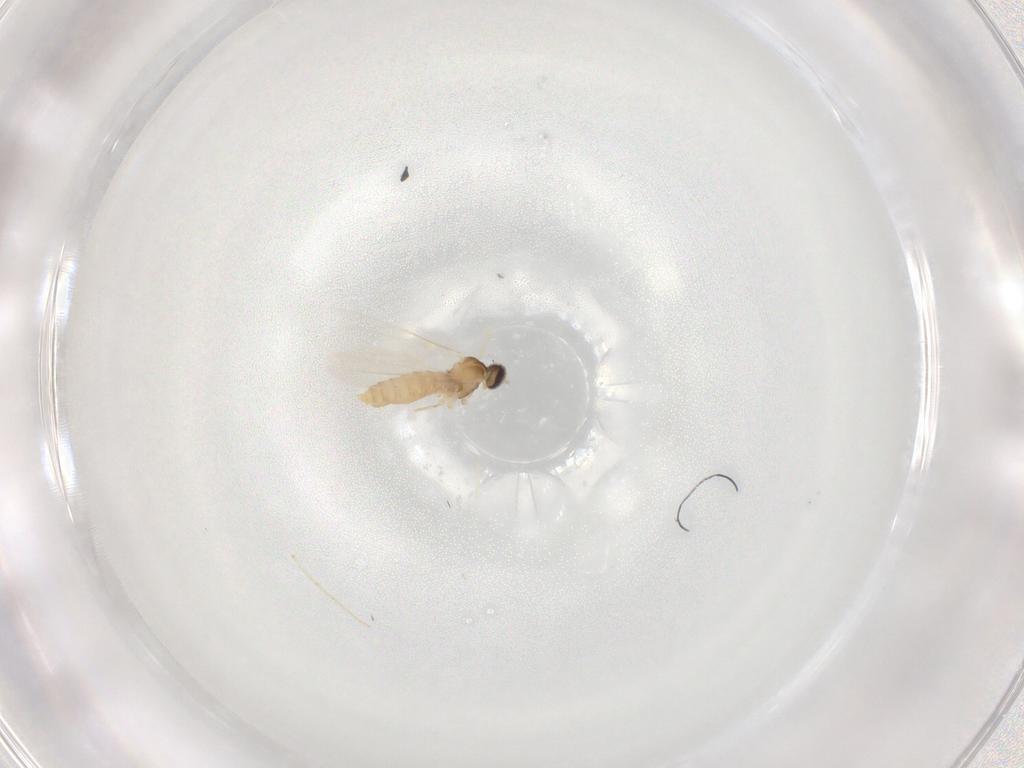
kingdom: Animalia
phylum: Arthropoda
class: Insecta
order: Diptera
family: Cecidomyiidae
